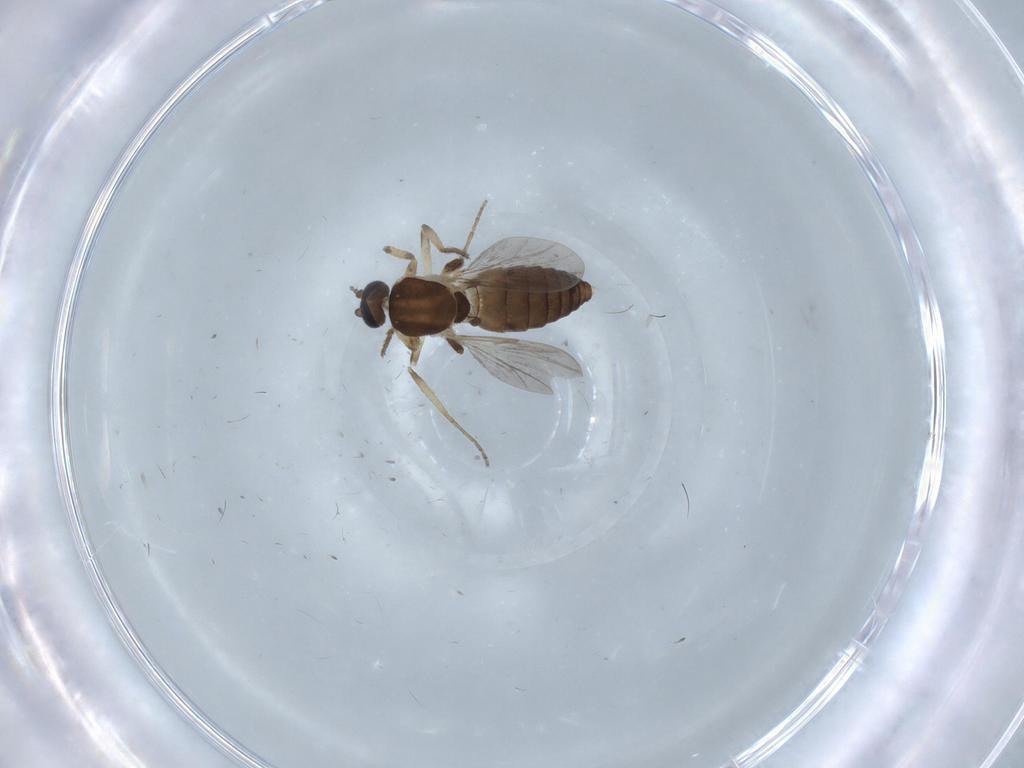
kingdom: Animalia
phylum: Arthropoda
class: Insecta
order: Diptera
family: Ceratopogonidae
